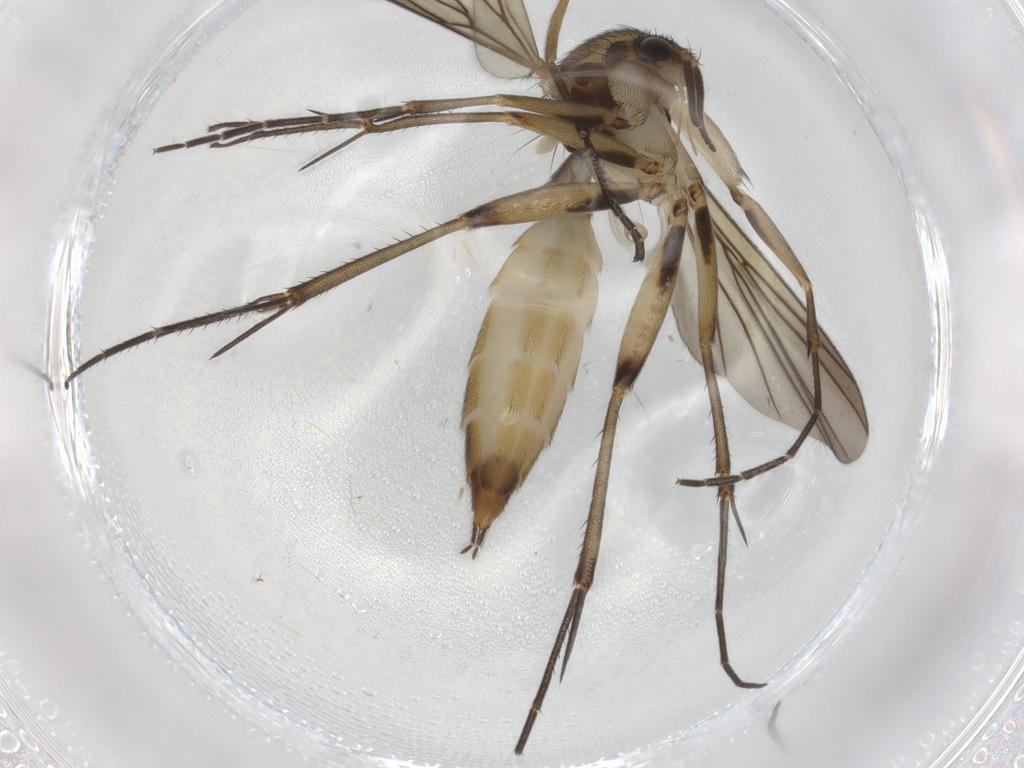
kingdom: Animalia
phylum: Arthropoda
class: Insecta
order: Diptera
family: Mycetophilidae
